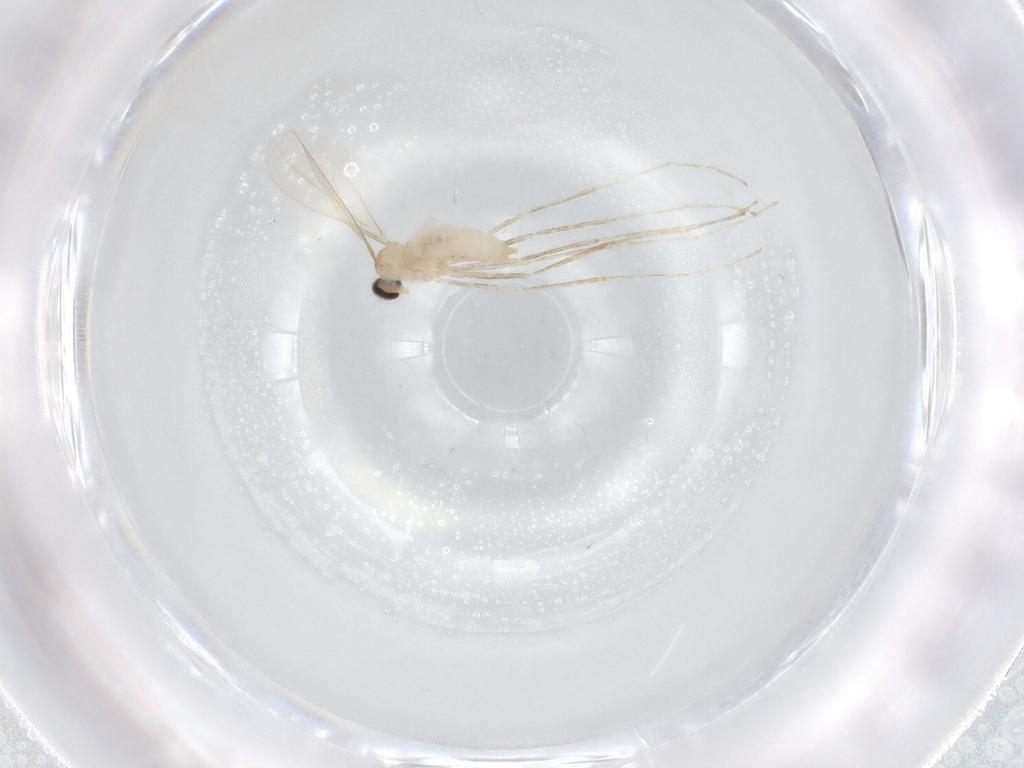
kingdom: Animalia
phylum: Arthropoda
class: Insecta
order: Diptera
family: Cecidomyiidae
